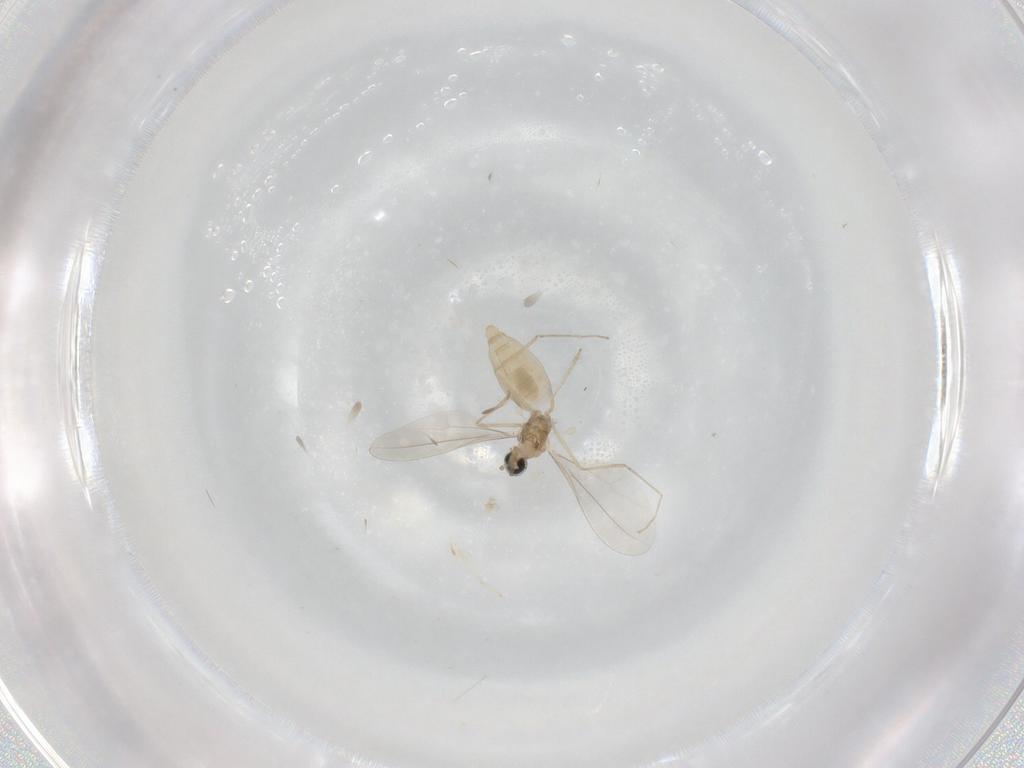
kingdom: Animalia
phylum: Arthropoda
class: Insecta
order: Diptera
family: Cecidomyiidae
